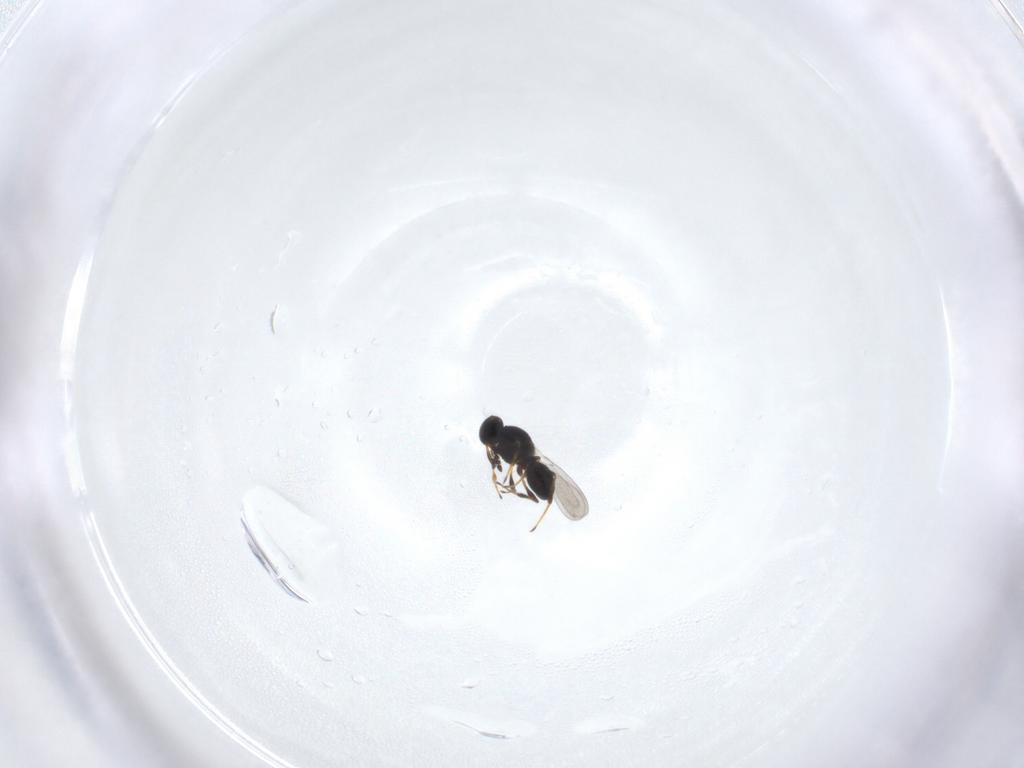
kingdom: Animalia
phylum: Arthropoda
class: Insecta
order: Hymenoptera
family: Platygastridae
